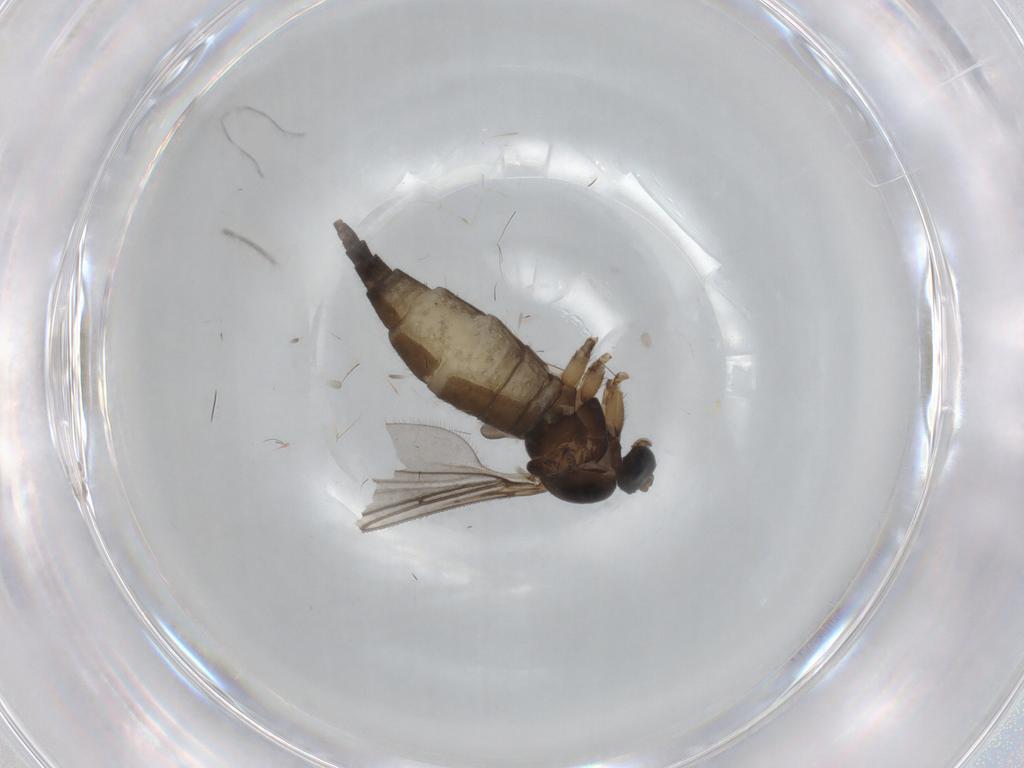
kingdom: Animalia
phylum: Arthropoda
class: Insecta
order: Diptera
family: Sciaridae
